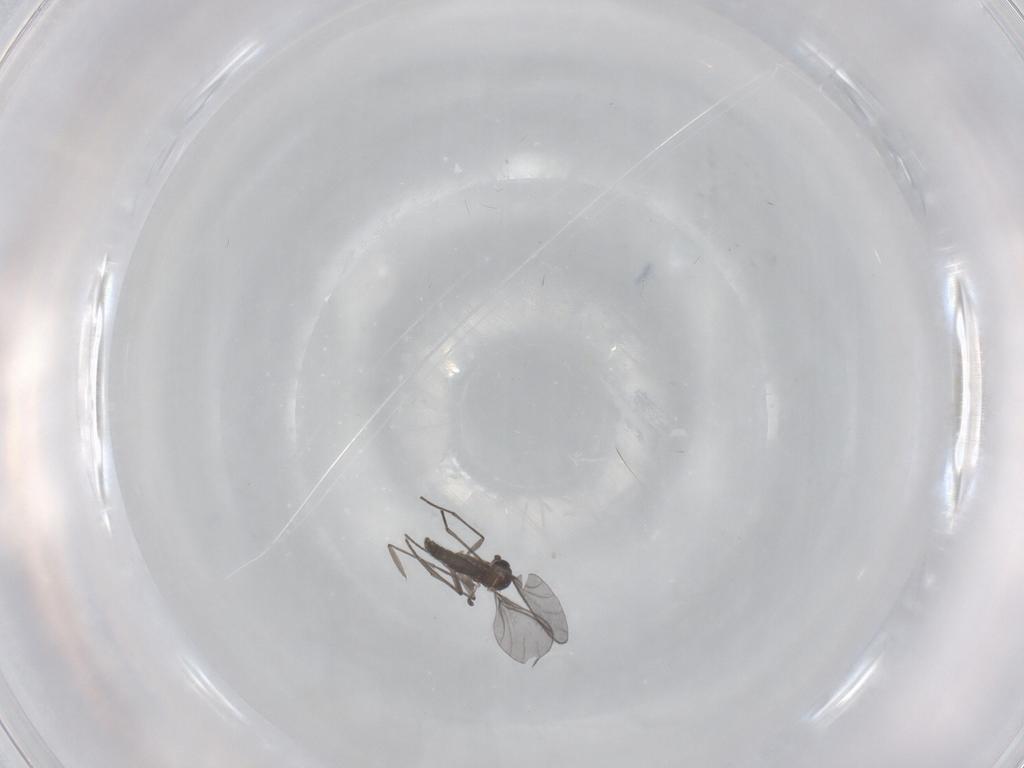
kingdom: Animalia
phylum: Arthropoda
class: Insecta
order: Diptera
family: Sciaridae
